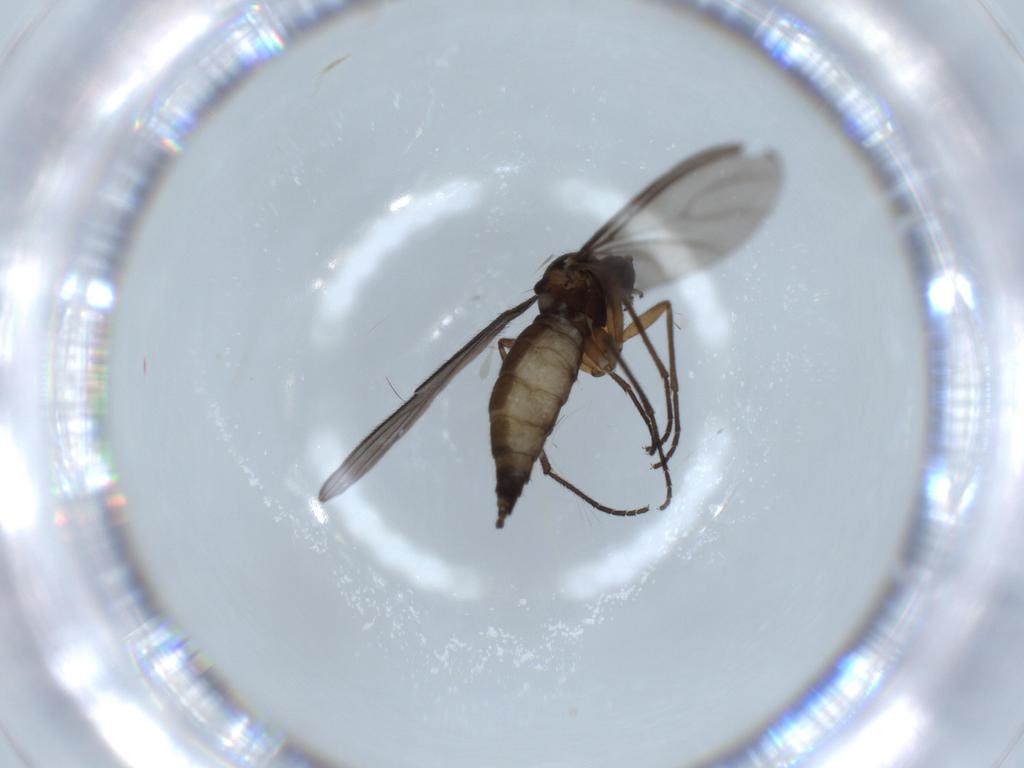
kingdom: Animalia
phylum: Arthropoda
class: Insecta
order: Diptera
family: Sciaridae
